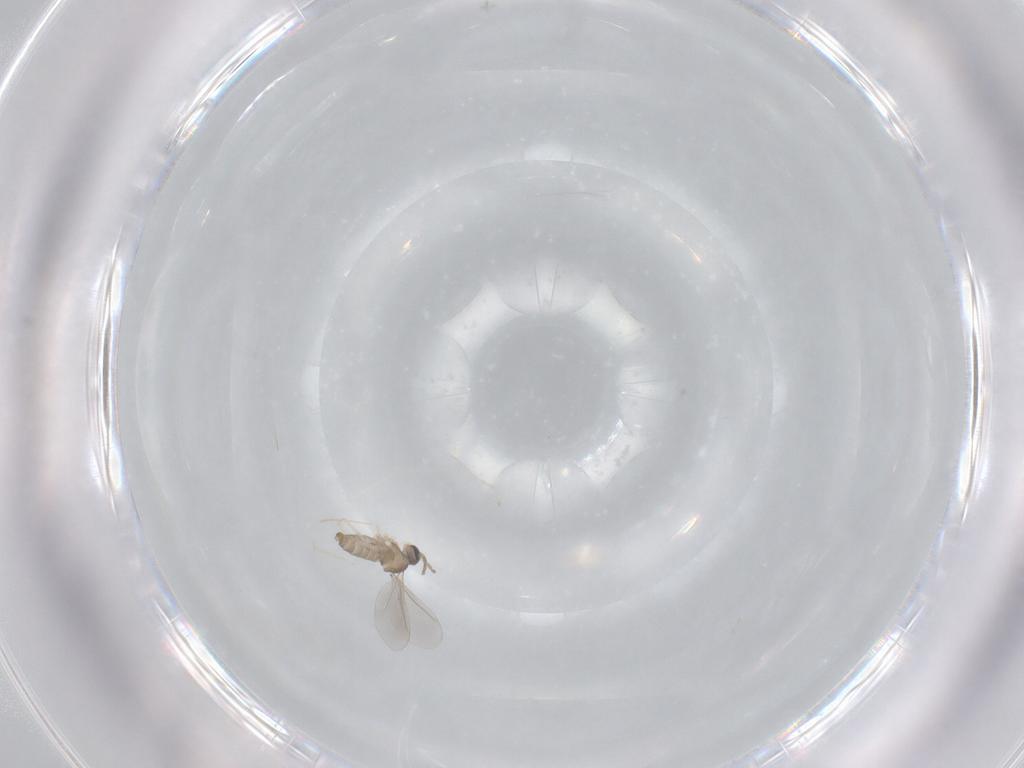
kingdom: Animalia
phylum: Arthropoda
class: Insecta
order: Diptera
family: Cecidomyiidae
